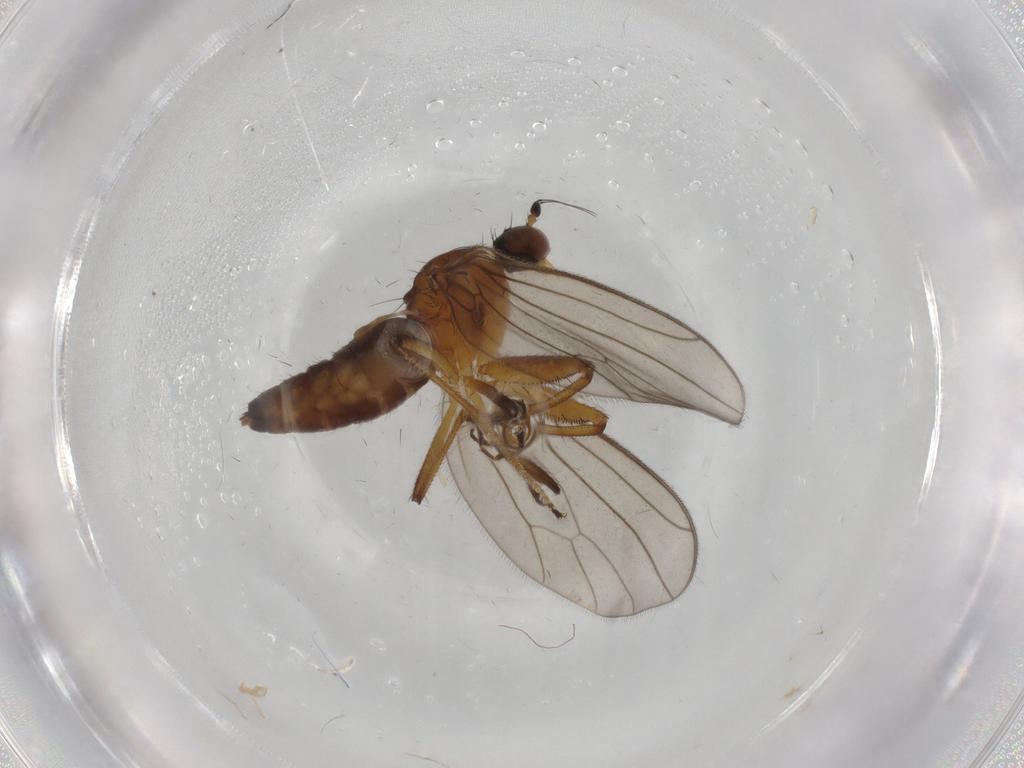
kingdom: Animalia
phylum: Arthropoda
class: Insecta
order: Diptera
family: Empididae
